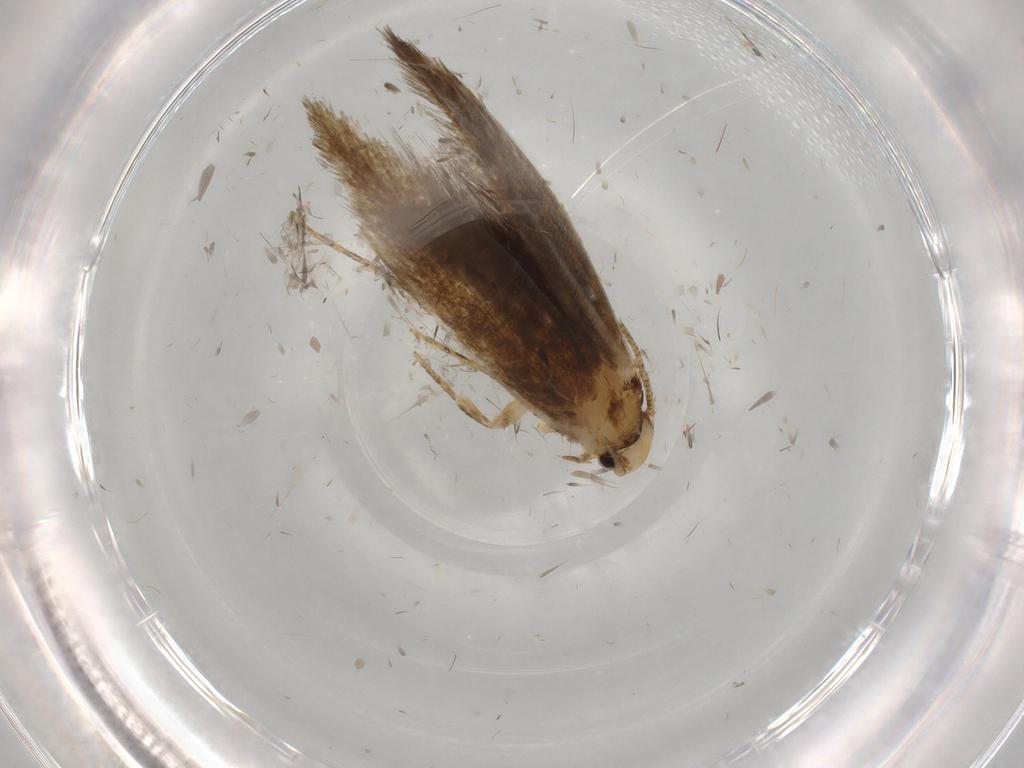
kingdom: Animalia
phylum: Arthropoda
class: Insecta
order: Lepidoptera
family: Tineidae
